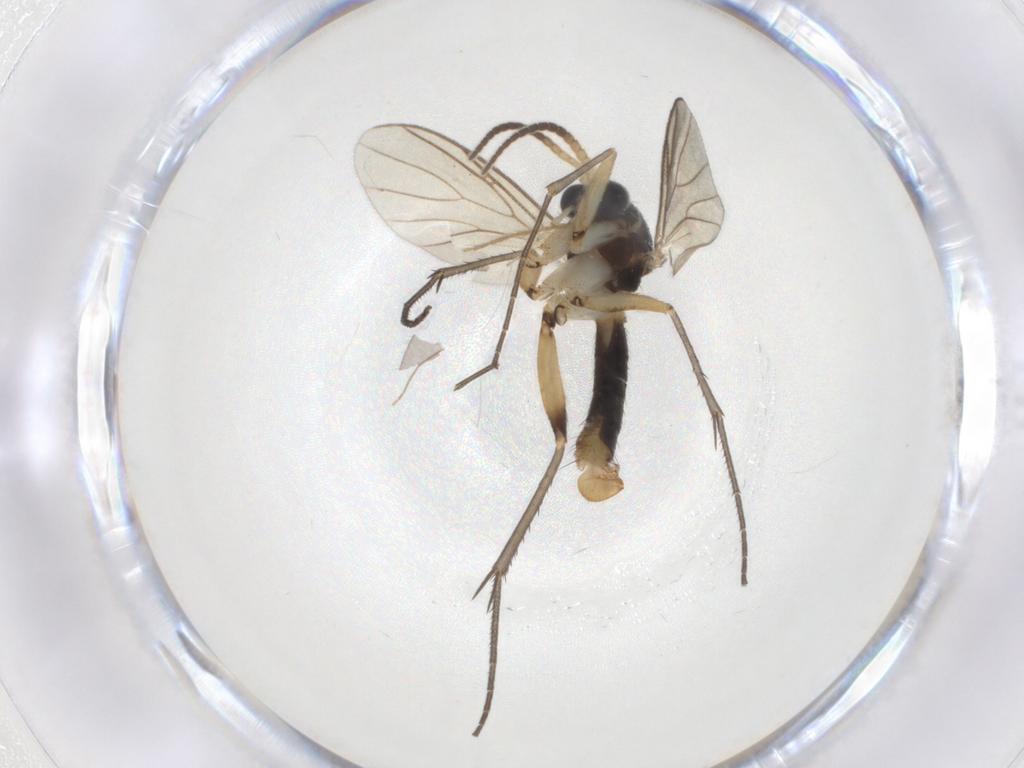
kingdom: Animalia
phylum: Arthropoda
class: Insecta
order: Diptera
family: Mycetophilidae
